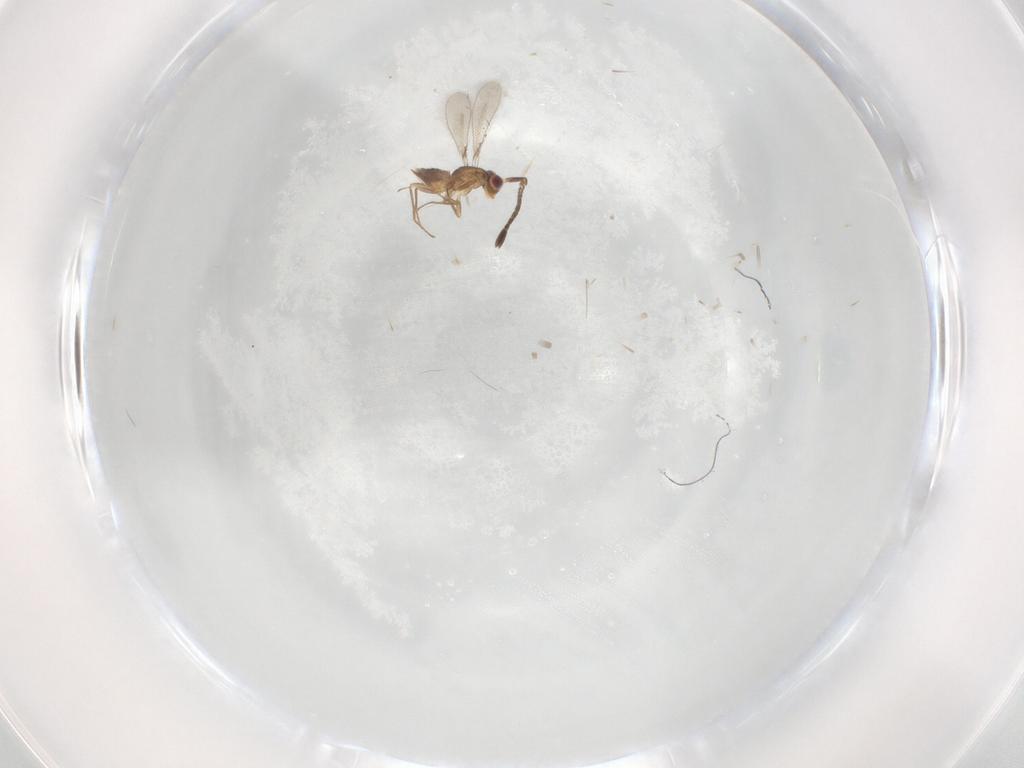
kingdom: Animalia
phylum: Arthropoda
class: Insecta
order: Hymenoptera
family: Mymaridae
